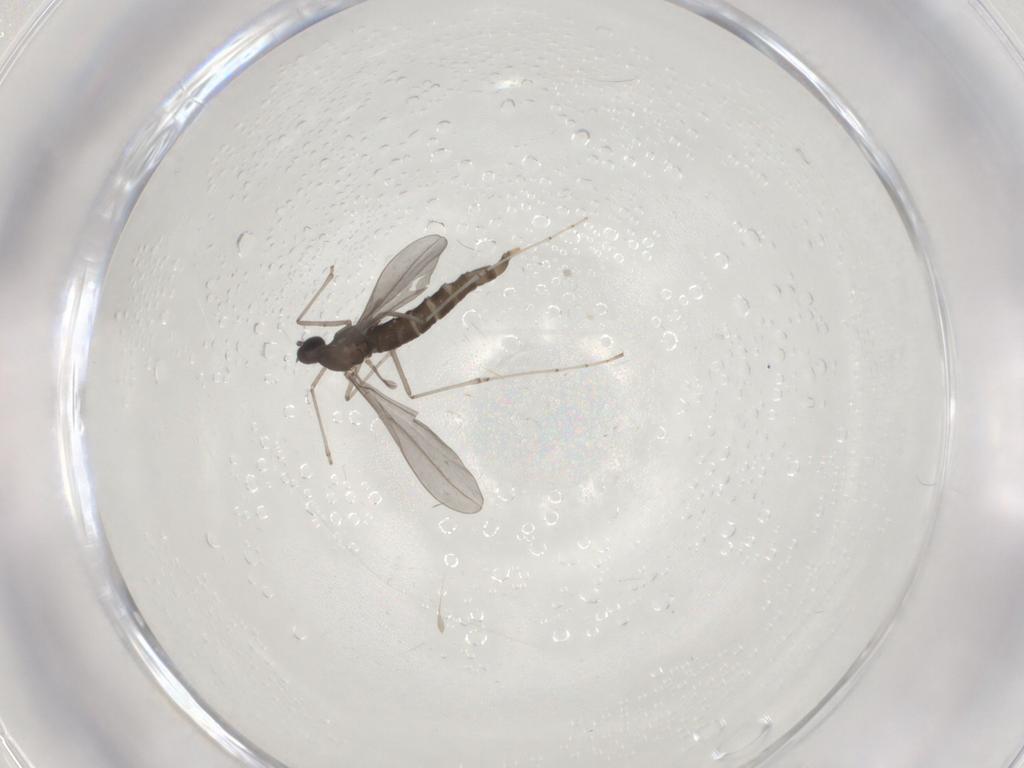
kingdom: Animalia
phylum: Arthropoda
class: Insecta
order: Diptera
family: Cecidomyiidae
